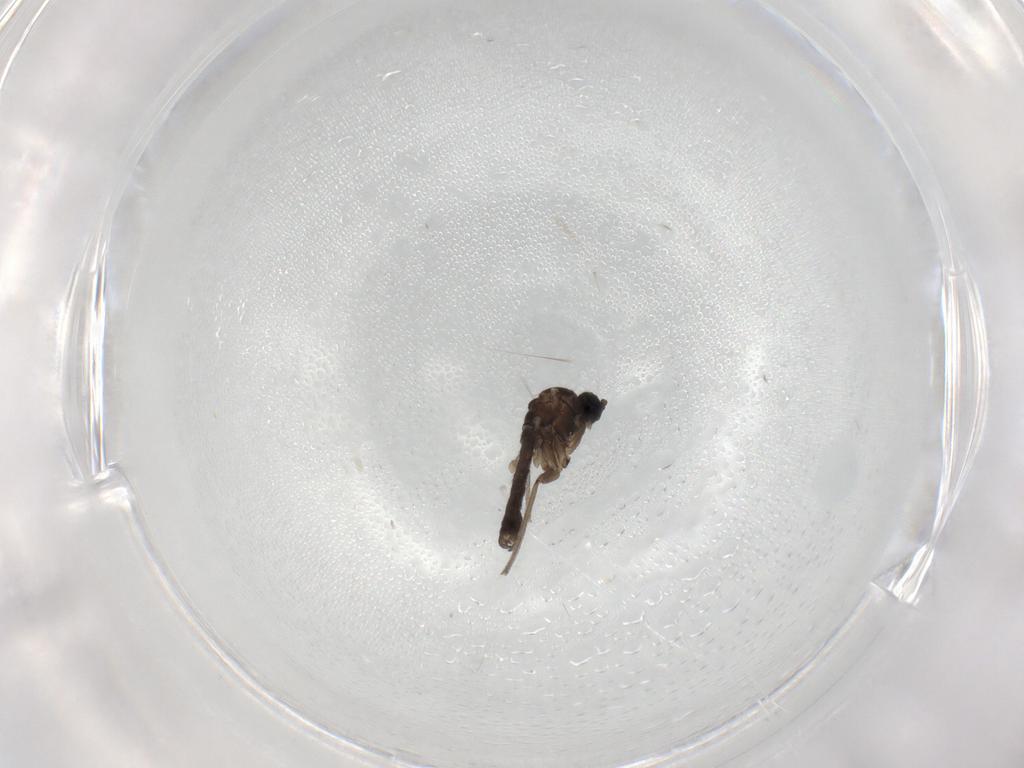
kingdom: Animalia
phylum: Arthropoda
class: Insecta
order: Diptera
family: Sciaridae
